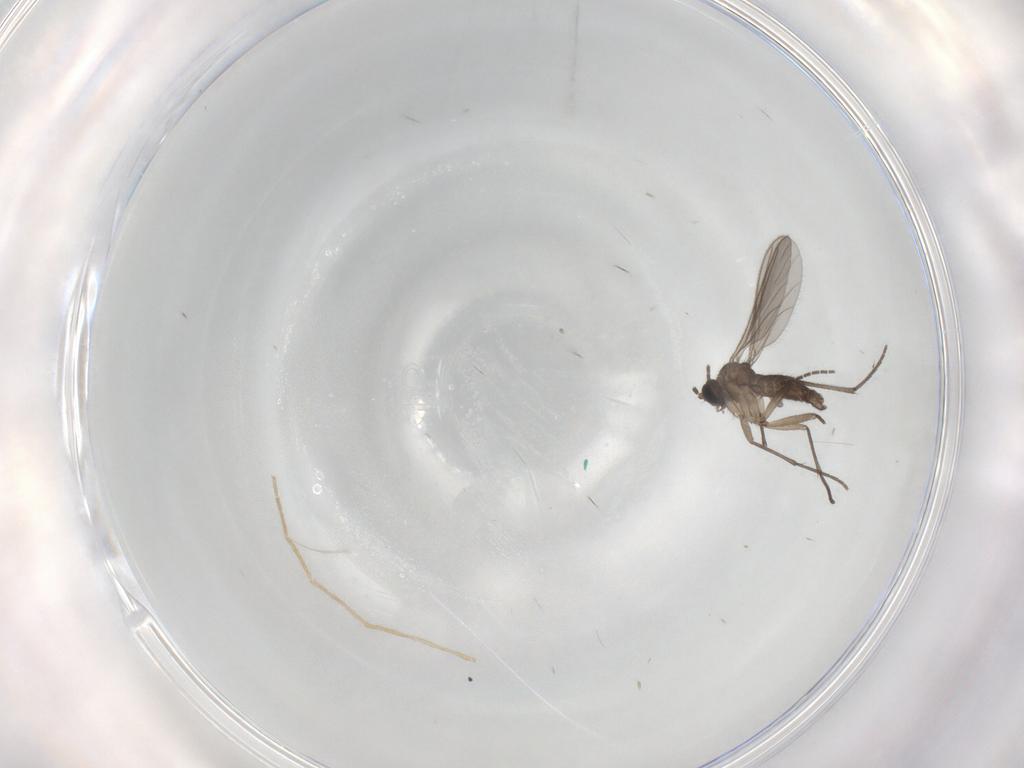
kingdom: Animalia
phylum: Arthropoda
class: Insecta
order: Diptera
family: Chironomidae
